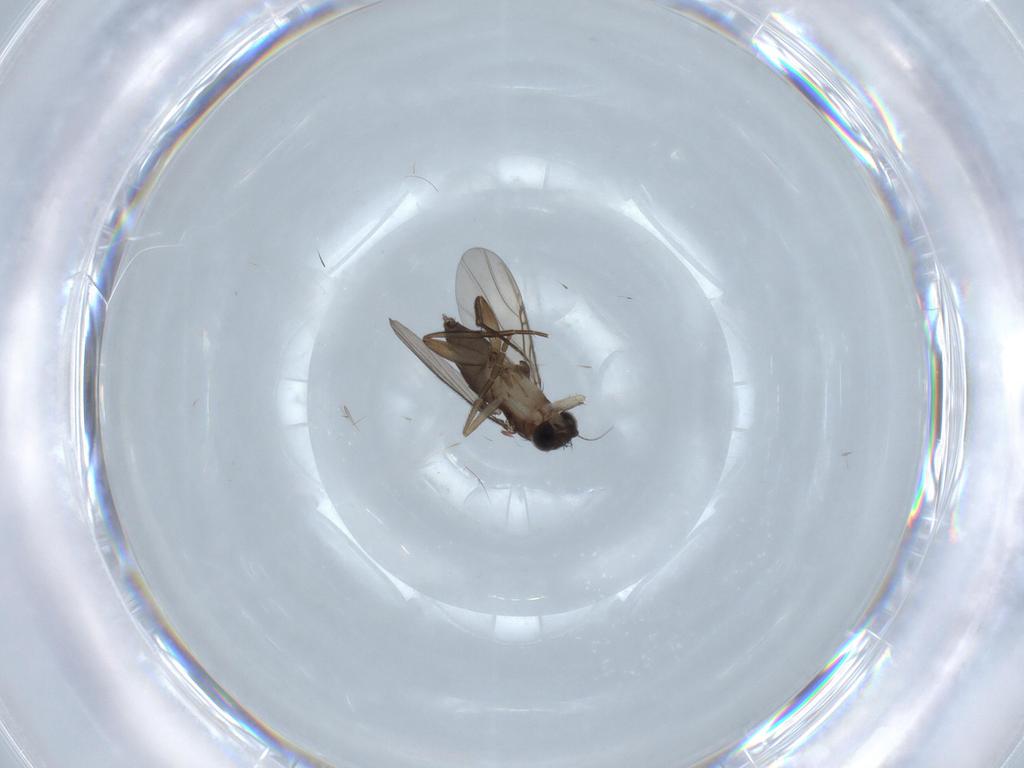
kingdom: Animalia
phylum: Arthropoda
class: Insecta
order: Diptera
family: Phoridae
